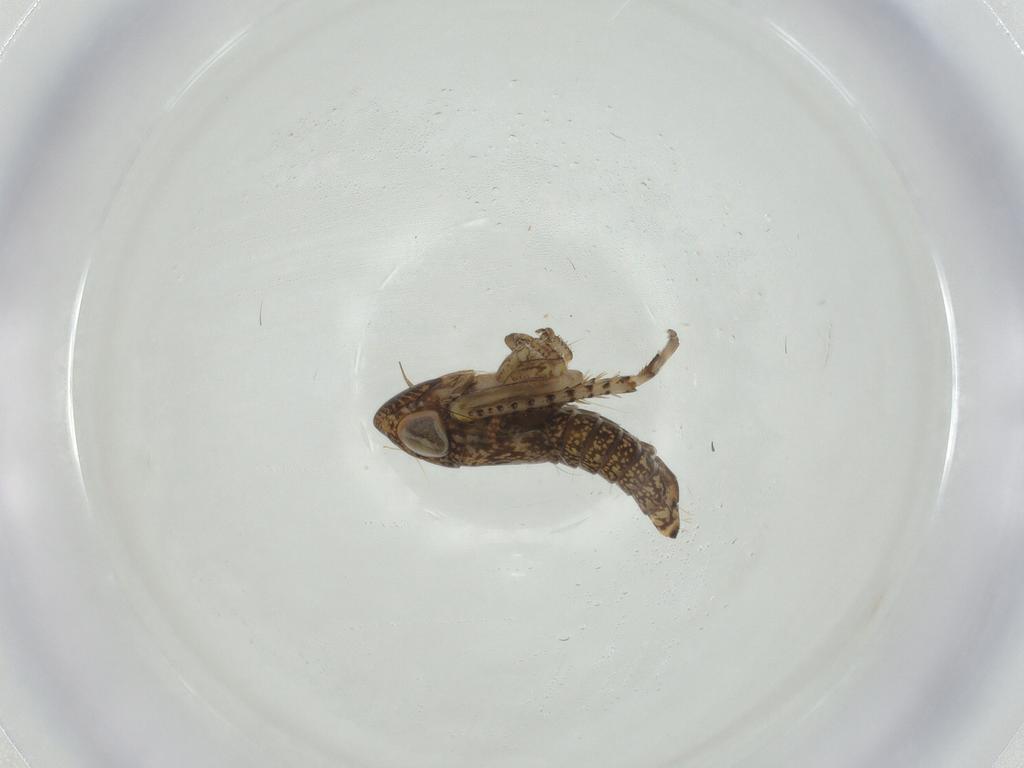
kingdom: Animalia
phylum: Arthropoda
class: Insecta
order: Hemiptera
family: Cicadellidae
